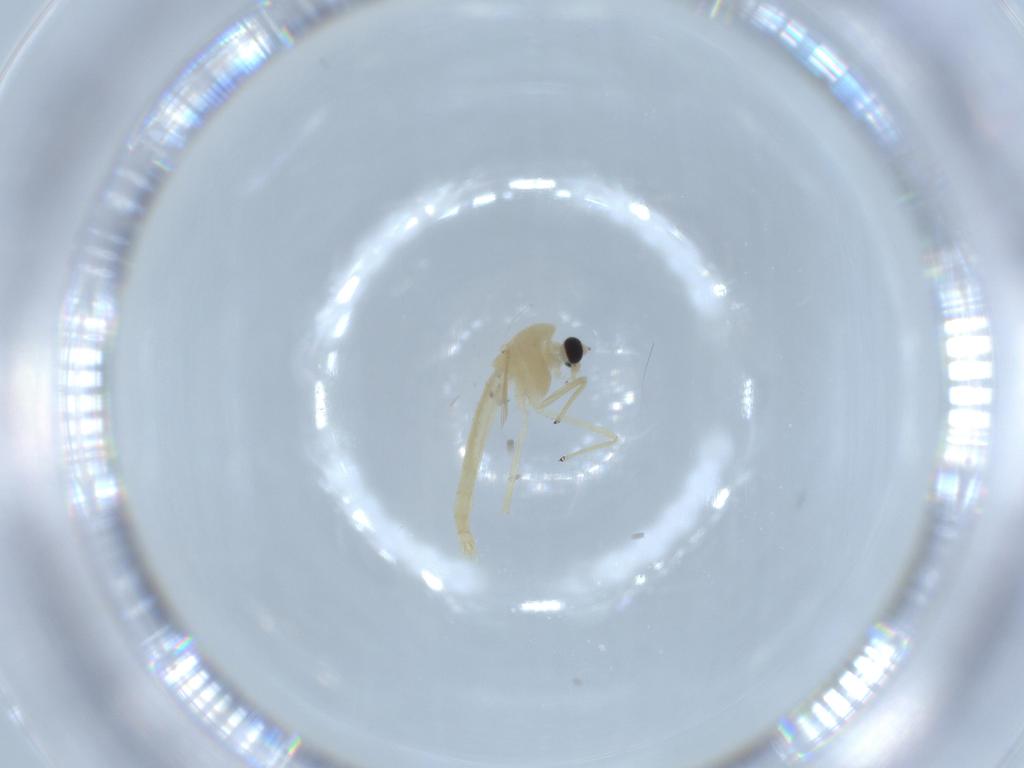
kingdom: Animalia
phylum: Arthropoda
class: Insecta
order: Diptera
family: Chironomidae
